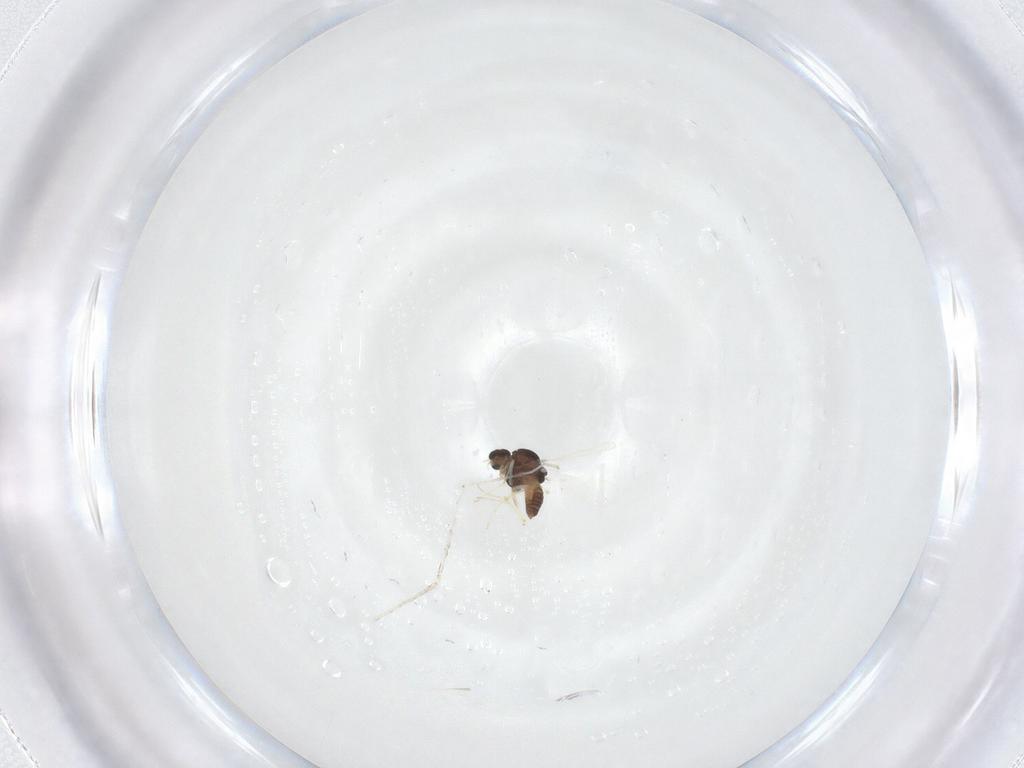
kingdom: Animalia
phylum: Arthropoda
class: Insecta
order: Diptera
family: Chironomidae
